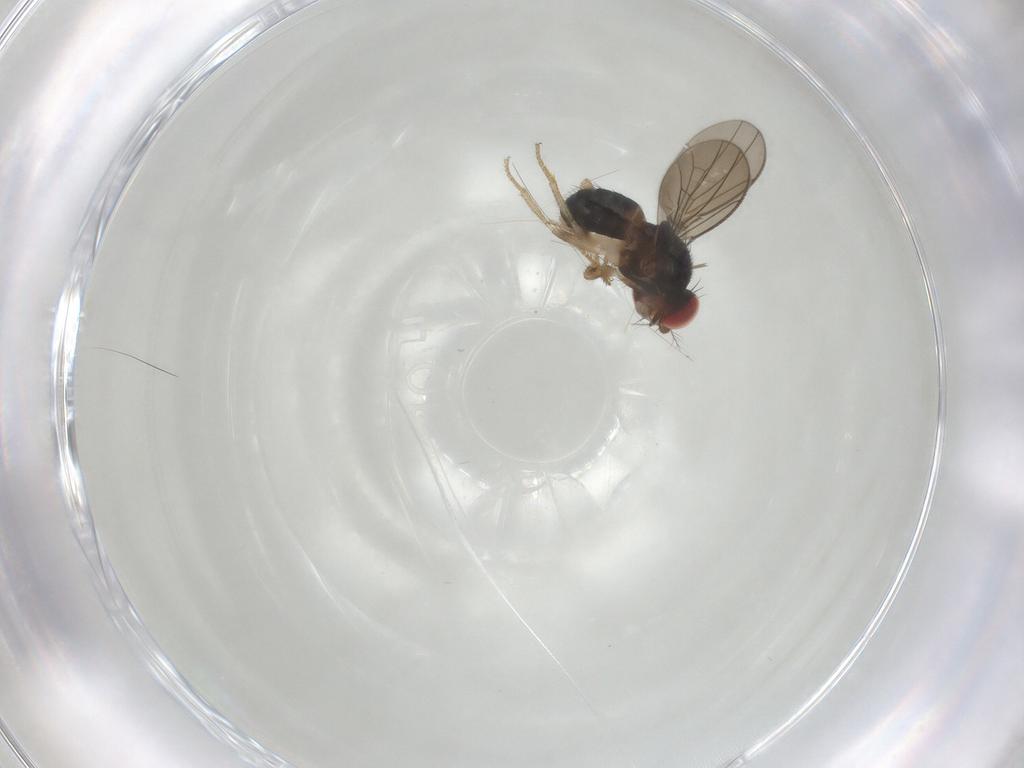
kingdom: Animalia
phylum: Arthropoda
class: Insecta
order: Diptera
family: Drosophilidae
